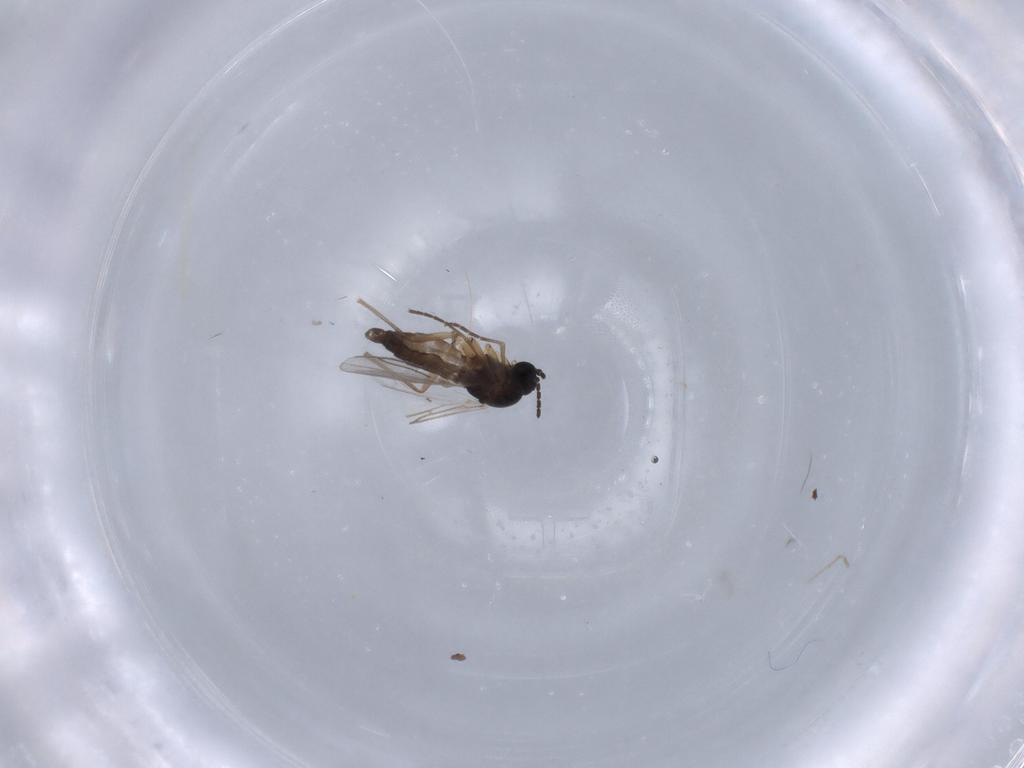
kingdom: Animalia
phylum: Arthropoda
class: Insecta
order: Diptera
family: Sciaridae
